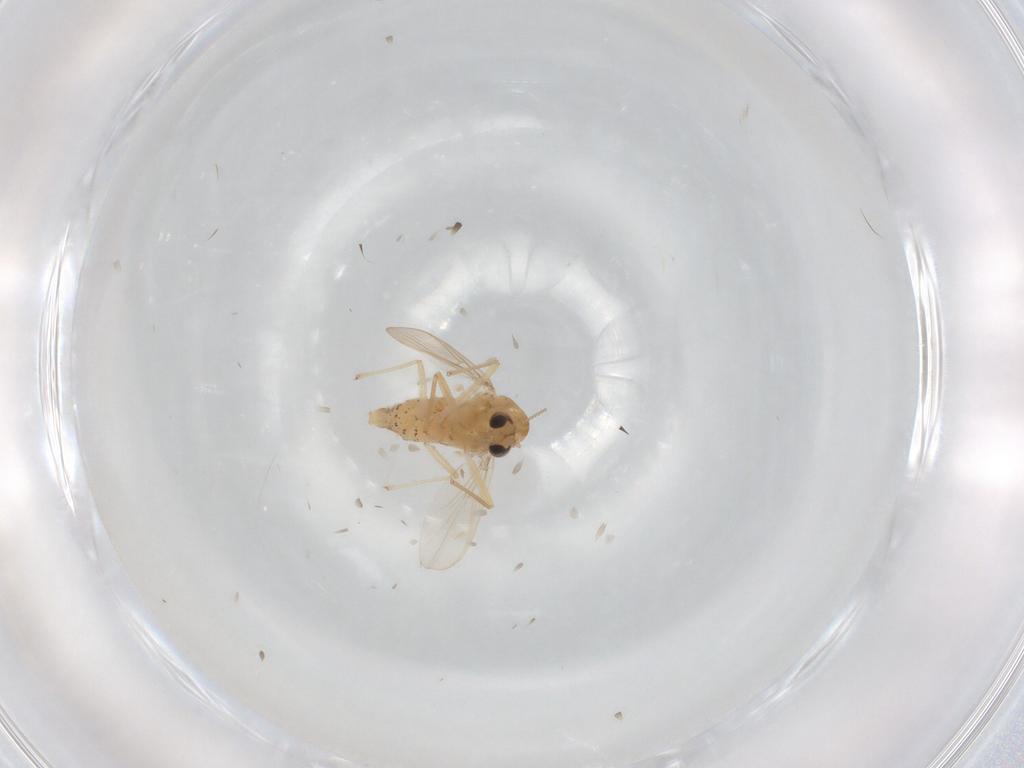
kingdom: Animalia
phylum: Arthropoda
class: Insecta
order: Diptera
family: Chironomidae
